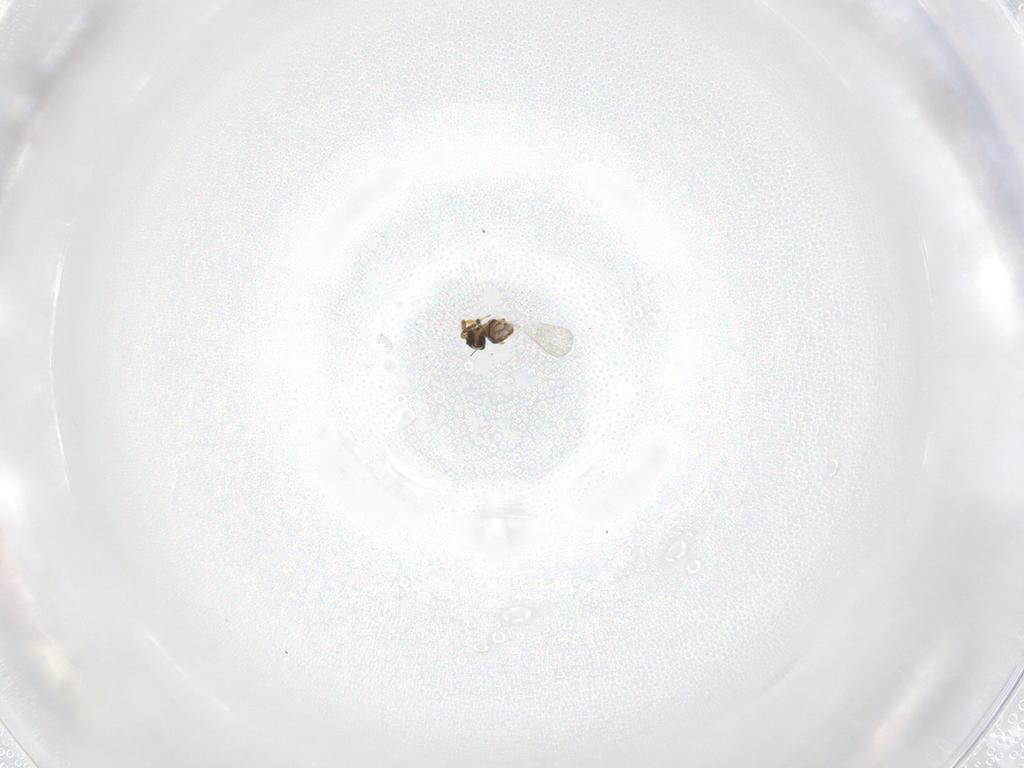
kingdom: Animalia
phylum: Arthropoda
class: Insecta
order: Hymenoptera
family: Platygastridae
